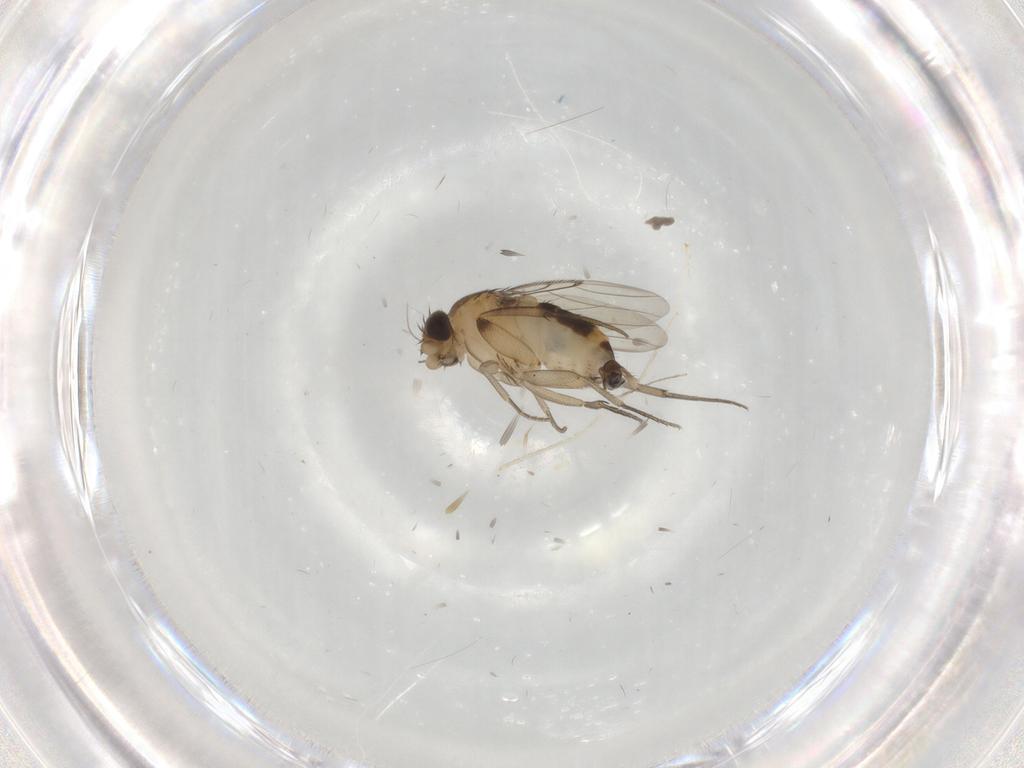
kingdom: Animalia
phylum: Arthropoda
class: Insecta
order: Diptera
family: Phoridae
